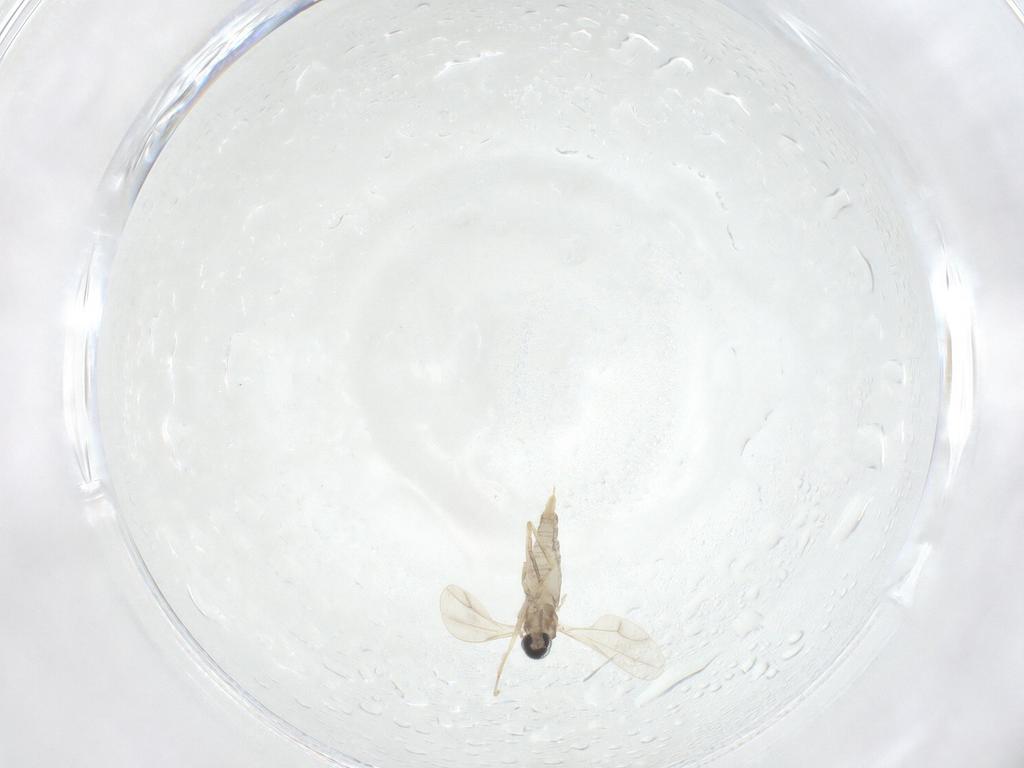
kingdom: Animalia
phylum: Arthropoda
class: Insecta
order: Diptera
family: Cecidomyiidae
